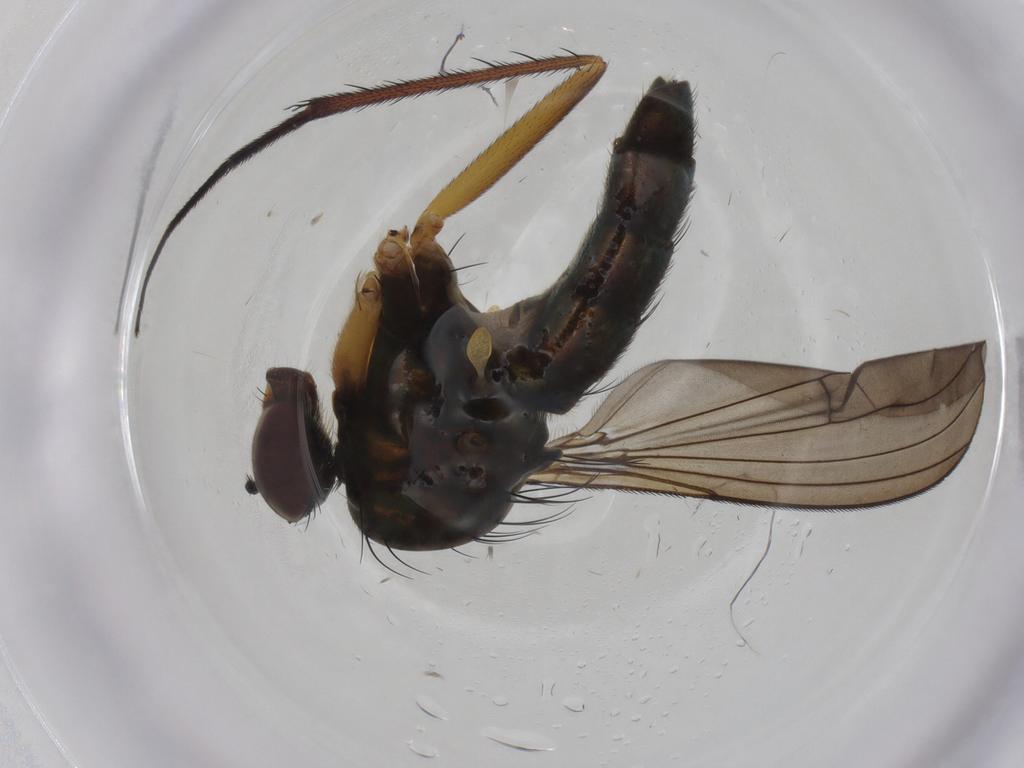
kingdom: Animalia
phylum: Arthropoda
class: Insecta
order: Diptera
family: Dolichopodidae
